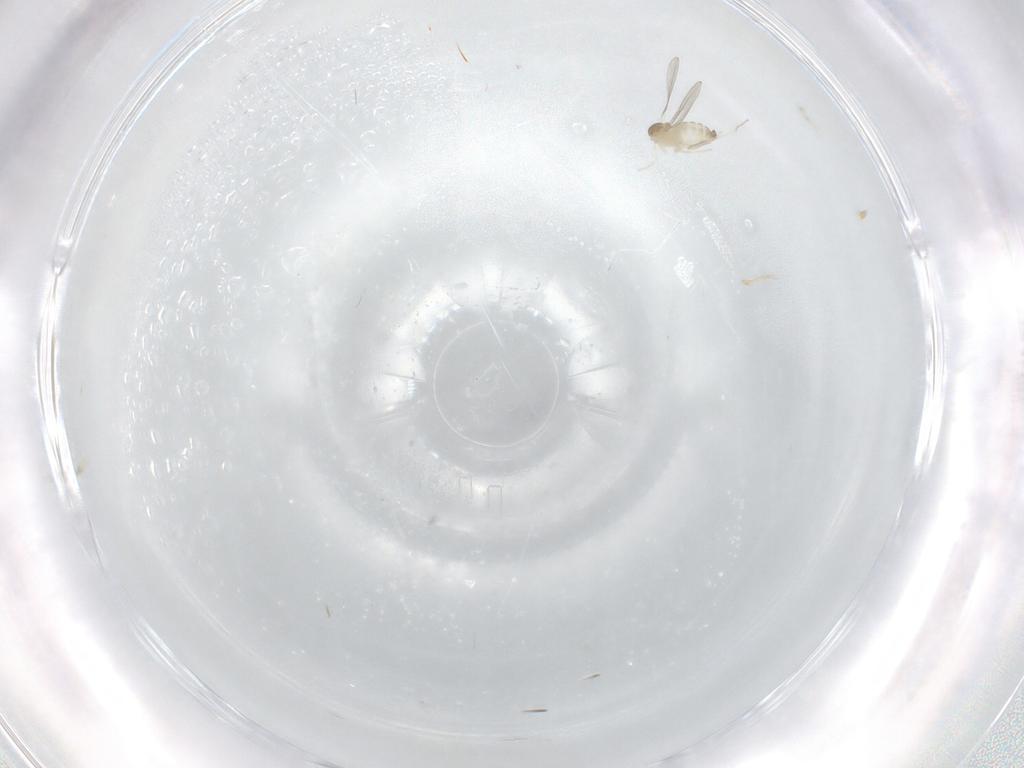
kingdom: Animalia
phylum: Arthropoda
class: Insecta
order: Diptera
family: Cecidomyiidae
